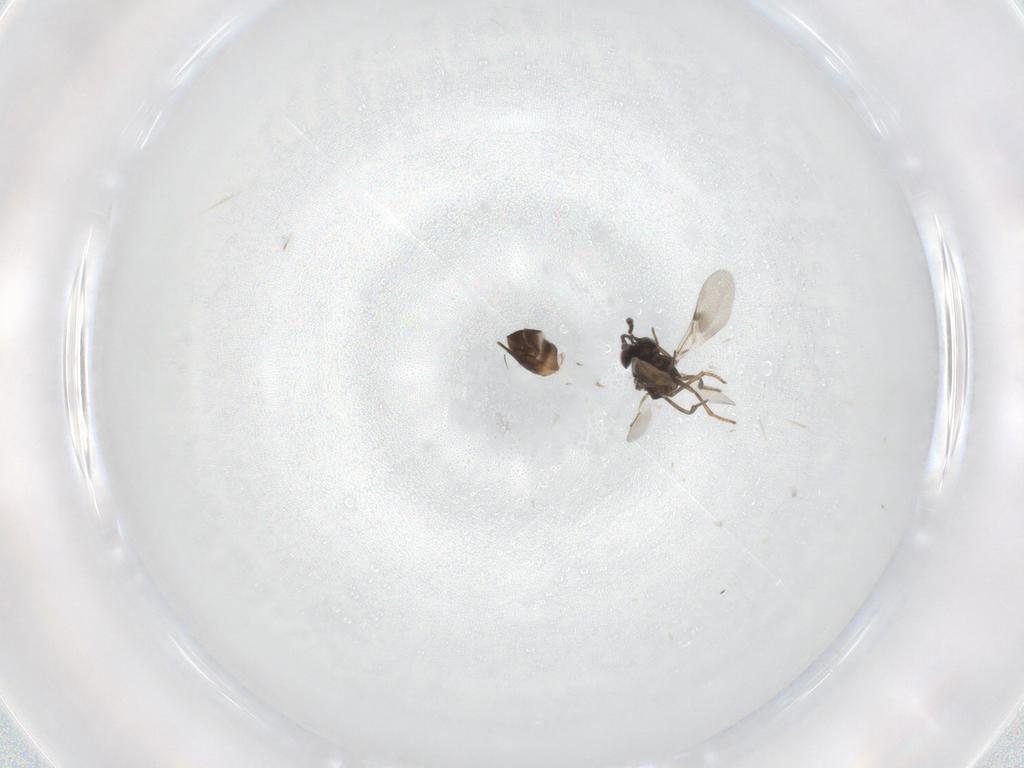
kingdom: Animalia
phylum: Arthropoda
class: Insecta
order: Hymenoptera
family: Encyrtidae
